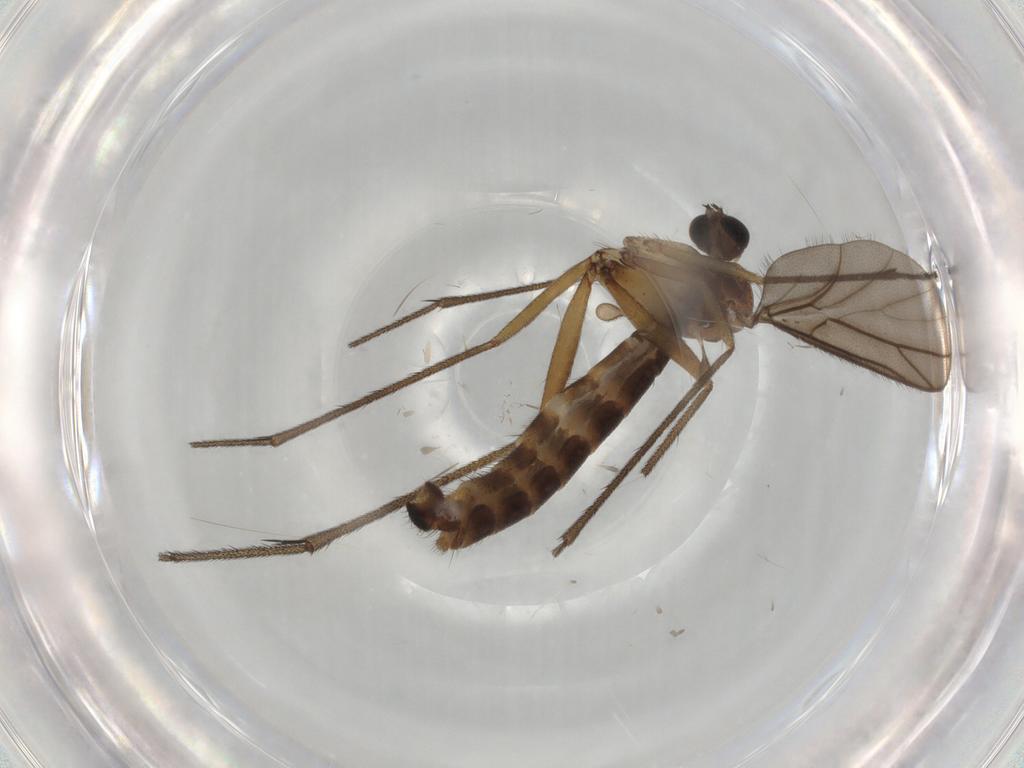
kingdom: Animalia
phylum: Arthropoda
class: Insecta
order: Diptera
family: Ditomyiidae
